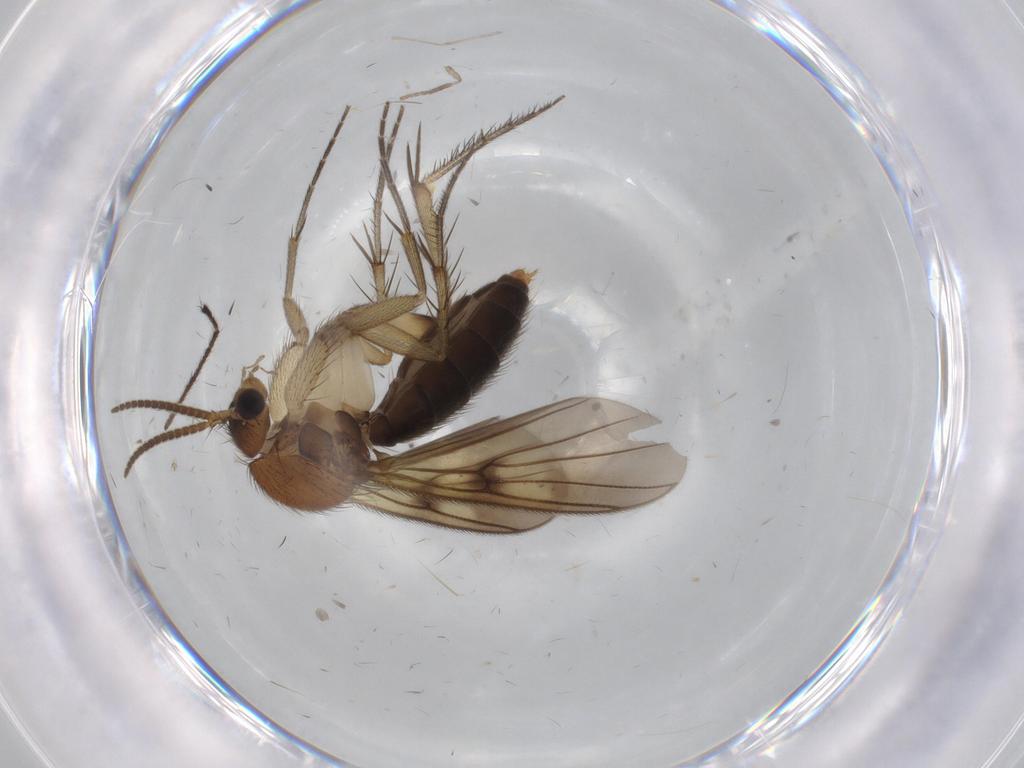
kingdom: Animalia
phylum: Arthropoda
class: Insecta
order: Diptera
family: Agromyzidae
